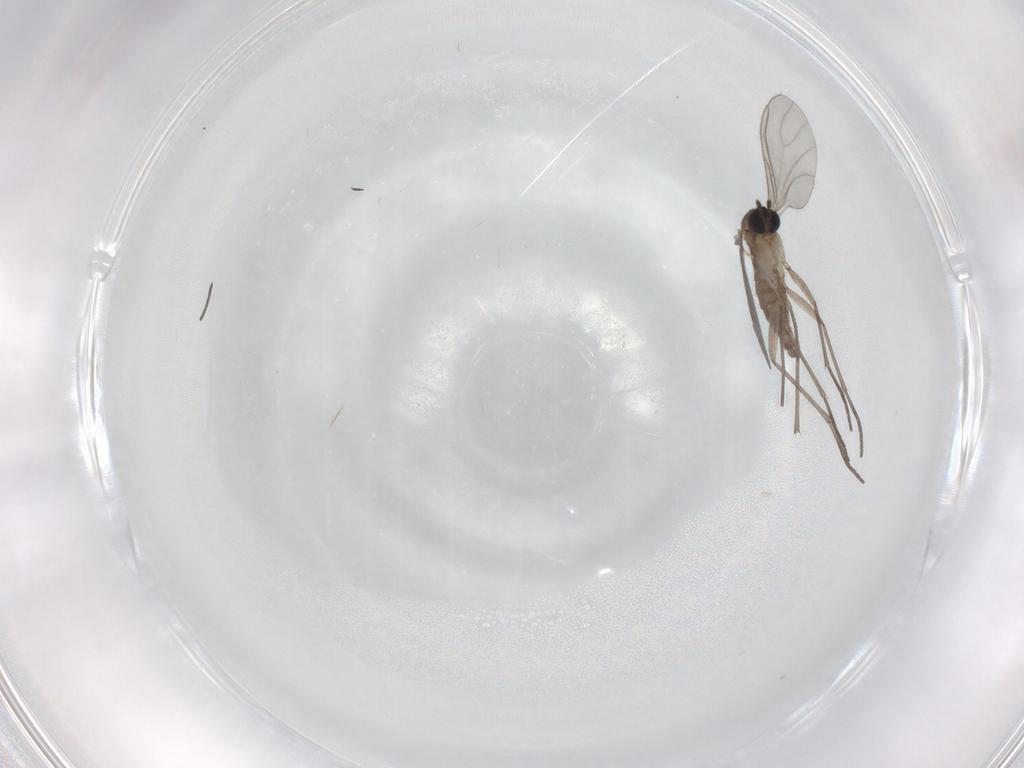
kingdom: Animalia
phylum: Arthropoda
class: Insecta
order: Diptera
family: Sciaridae
